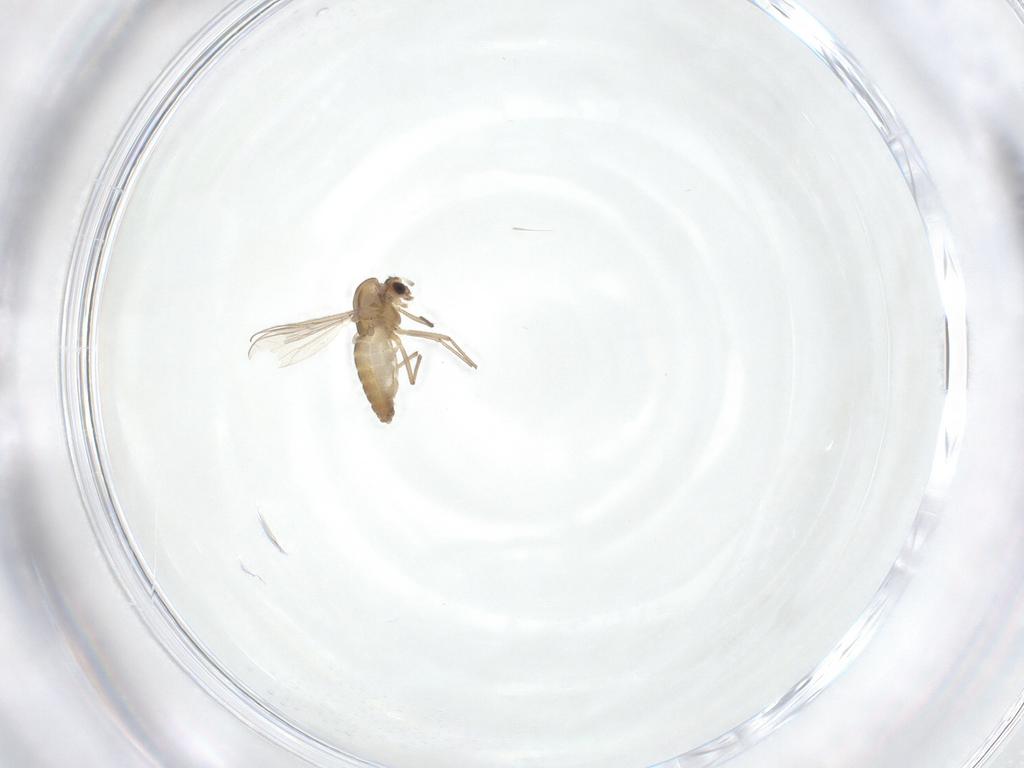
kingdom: Animalia
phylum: Arthropoda
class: Insecta
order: Diptera
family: Chironomidae
